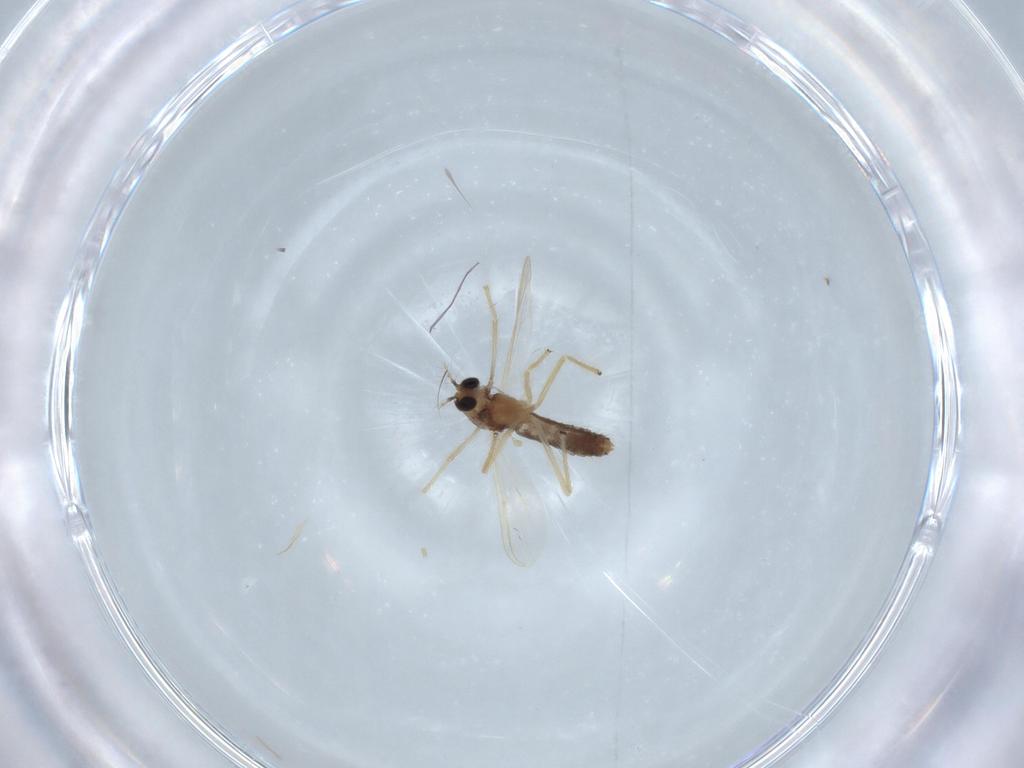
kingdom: Animalia
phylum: Arthropoda
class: Insecta
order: Diptera
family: Chironomidae
